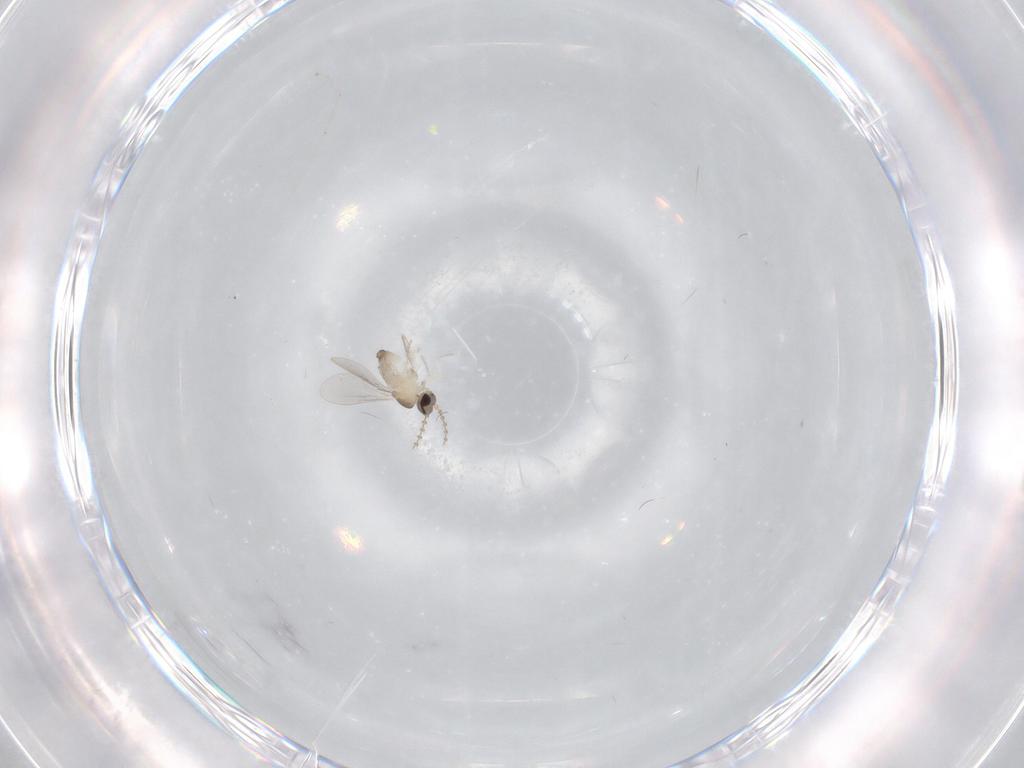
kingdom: Animalia
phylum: Arthropoda
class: Insecta
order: Diptera
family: Cecidomyiidae
